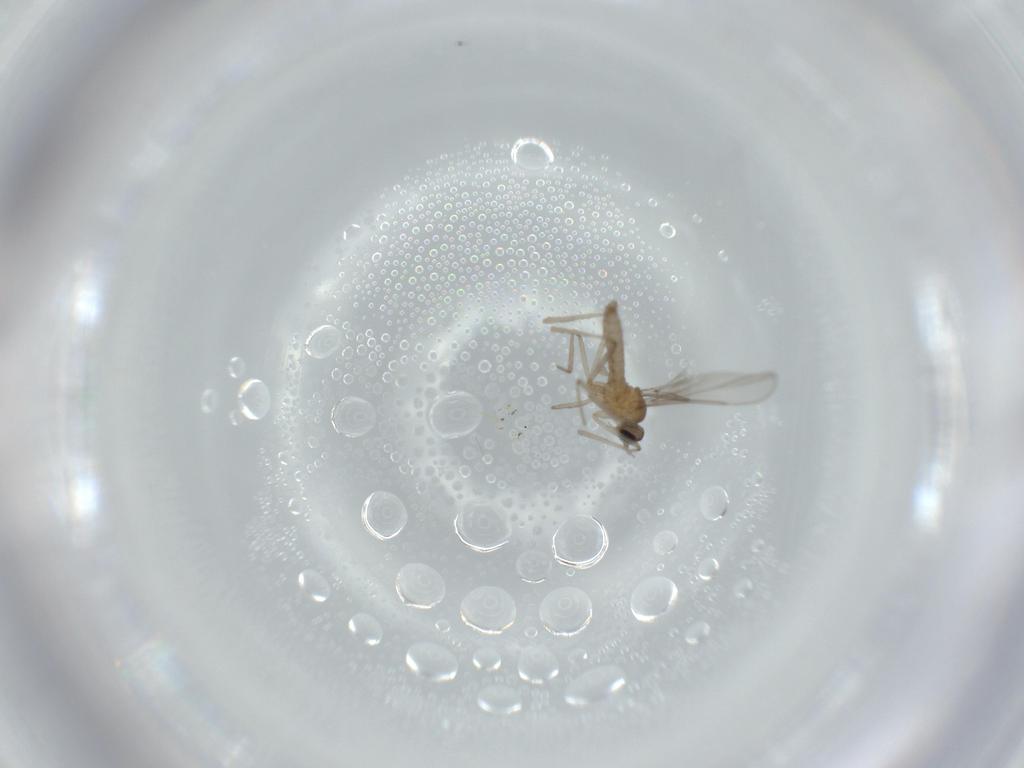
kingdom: Animalia
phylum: Arthropoda
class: Insecta
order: Diptera
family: Cecidomyiidae
